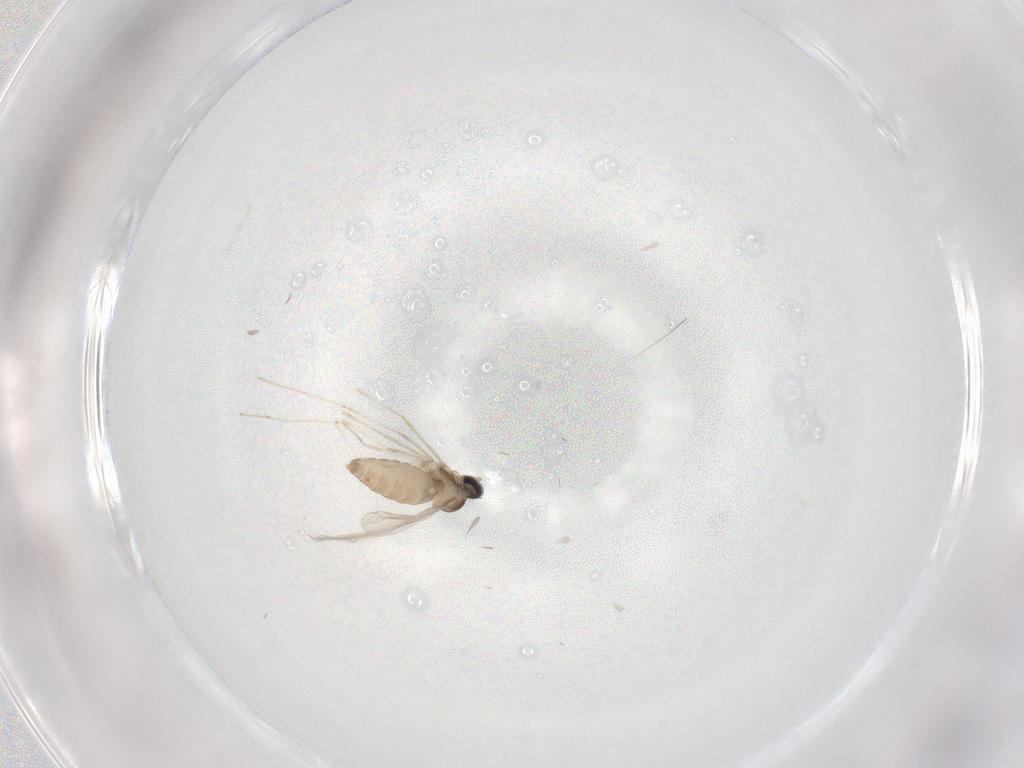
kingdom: Animalia
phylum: Arthropoda
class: Insecta
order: Diptera
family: Cecidomyiidae
